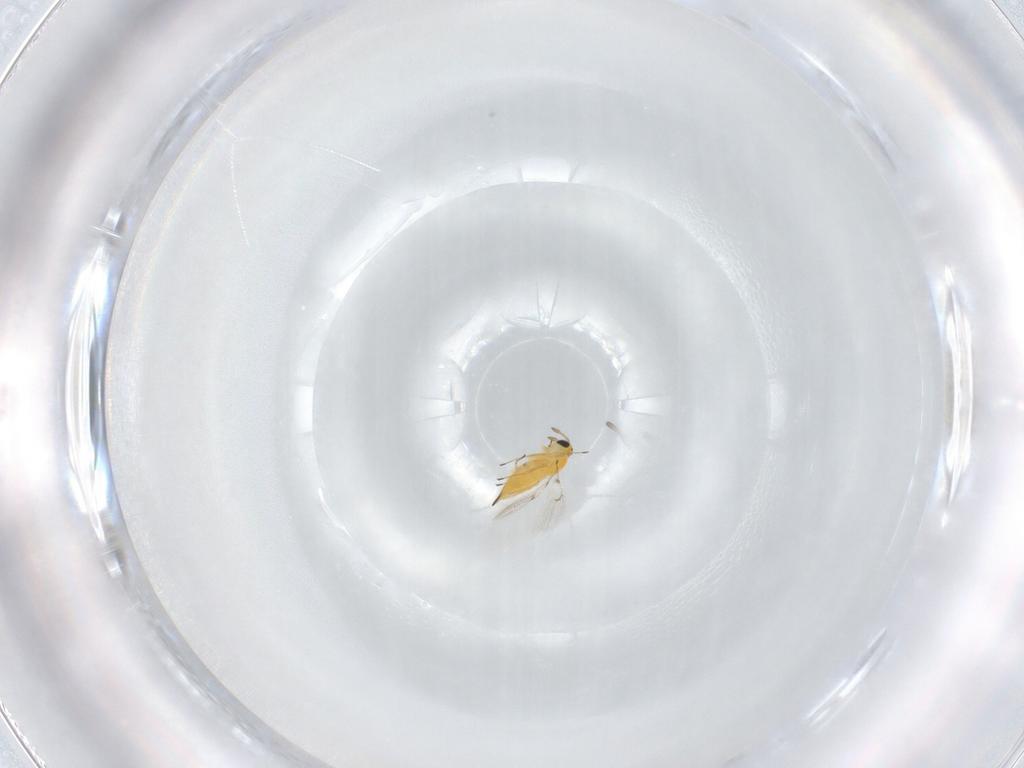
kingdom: Animalia
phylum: Arthropoda
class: Insecta
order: Hymenoptera
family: Trichogrammatidae
